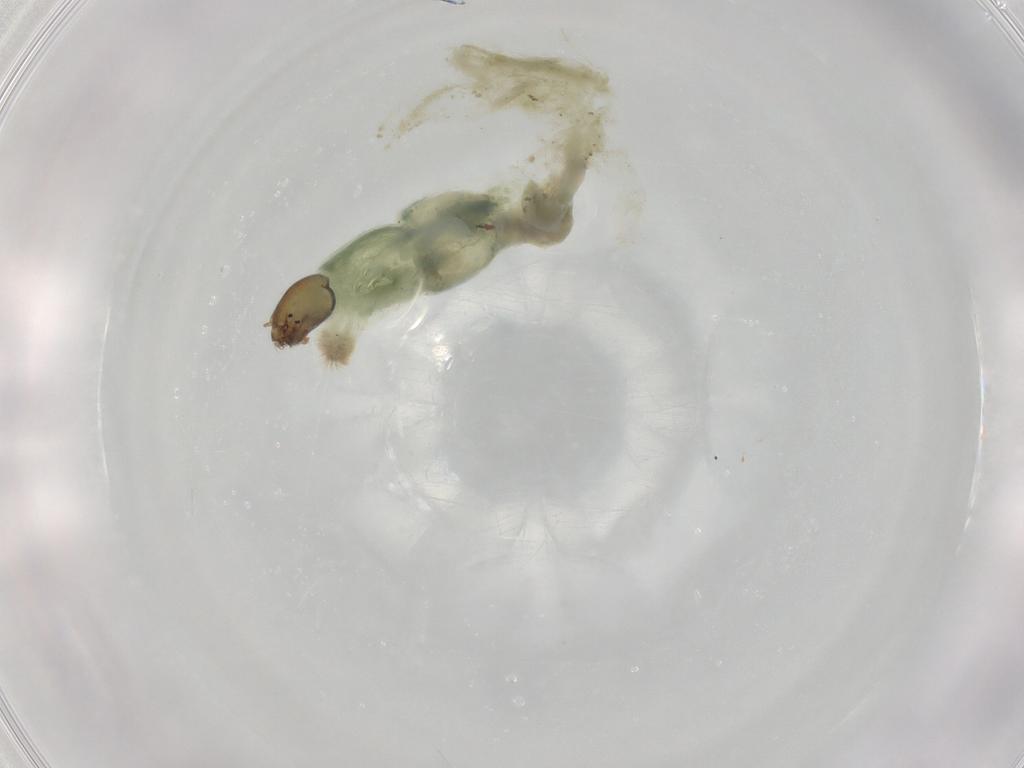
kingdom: Animalia
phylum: Arthropoda
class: Insecta
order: Diptera
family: Chironomidae
